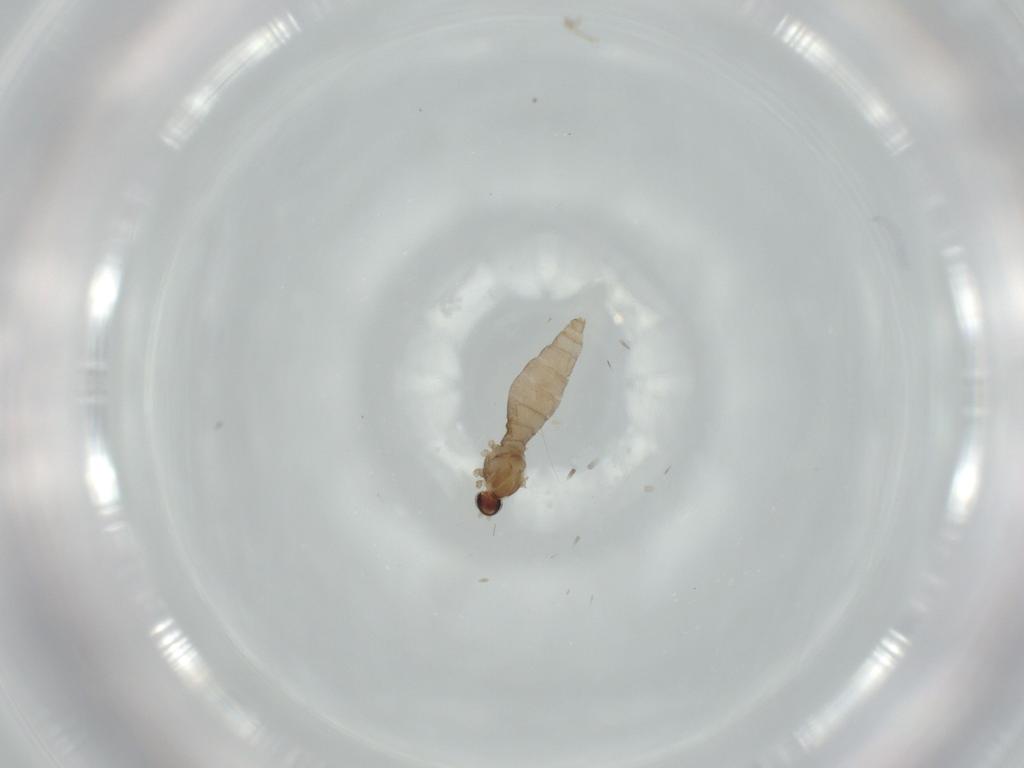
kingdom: Animalia
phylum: Arthropoda
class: Insecta
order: Diptera
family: Cecidomyiidae
